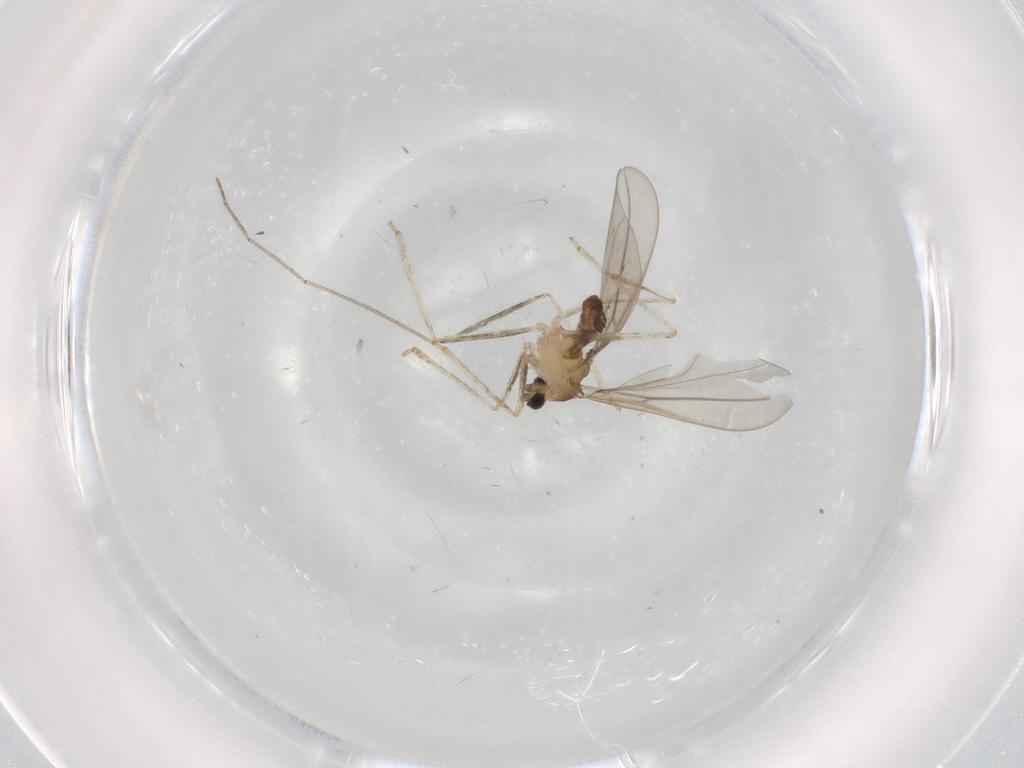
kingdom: Animalia
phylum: Arthropoda
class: Insecta
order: Diptera
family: Cecidomyiidae
